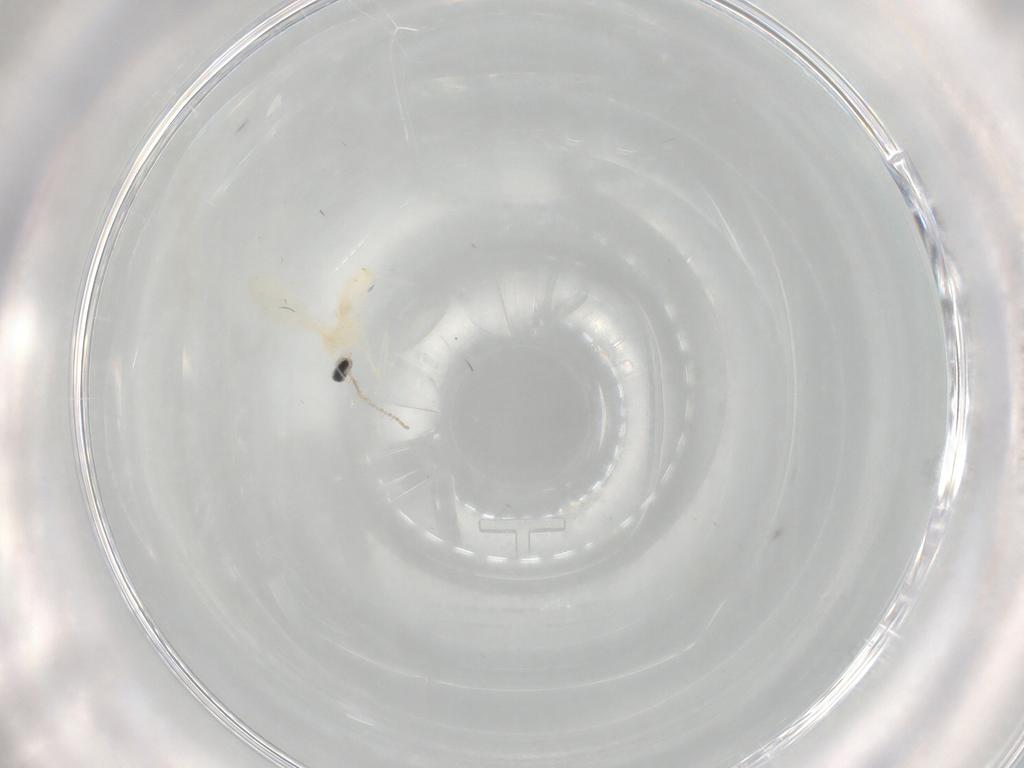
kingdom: Animalia
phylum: Arthropoda
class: Insecta
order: Diptera
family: Cecidomyiidae
